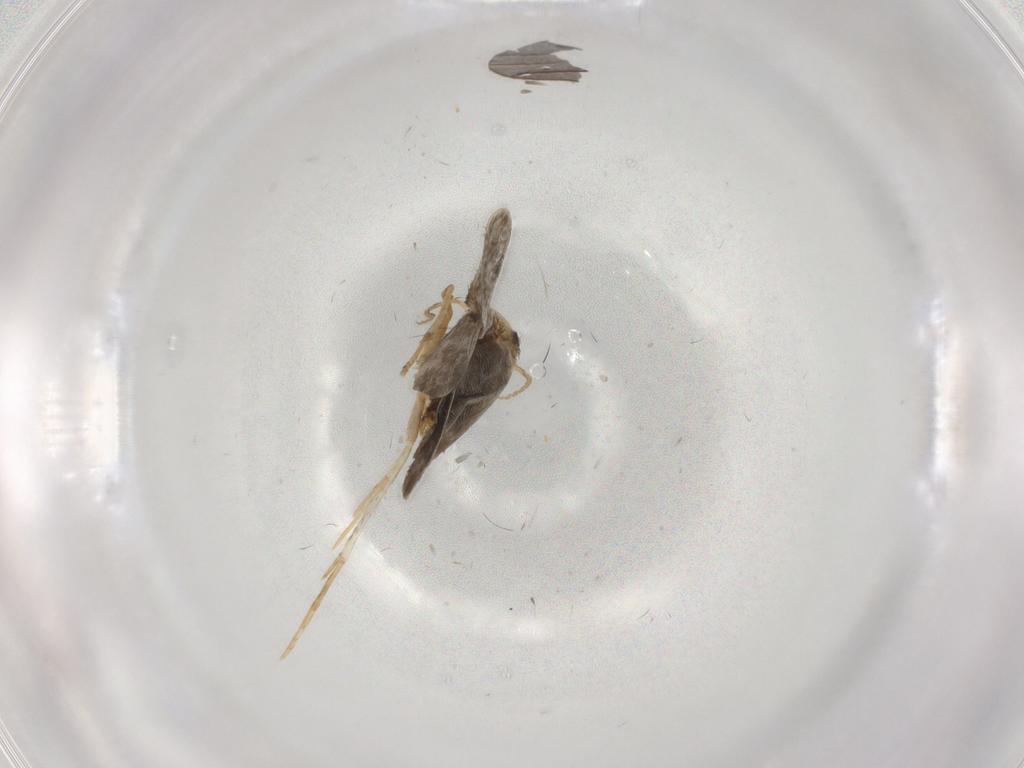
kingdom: Animalia
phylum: Arthropoda
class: Insecta
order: Lepidoptera
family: Psychidae
